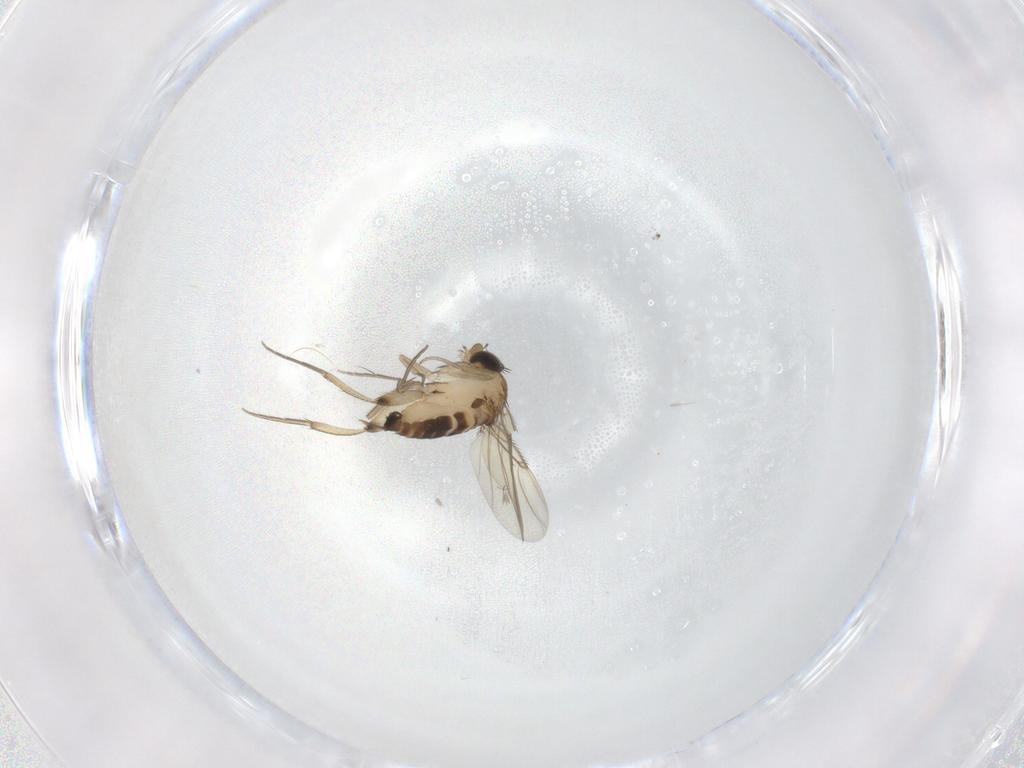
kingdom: Animalia
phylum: Arthropoda
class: Insecta
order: Diptera
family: Phoridae
